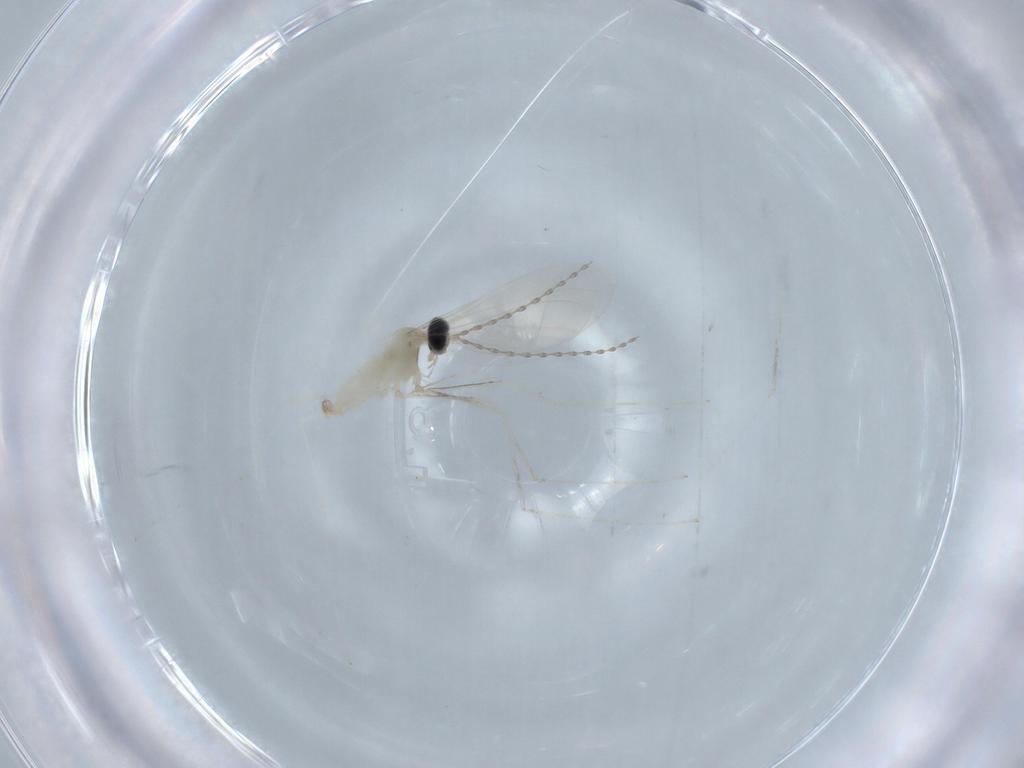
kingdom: Animalia
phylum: Arthropoda
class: Insecta
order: Diptera
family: Cecidomyiidae
